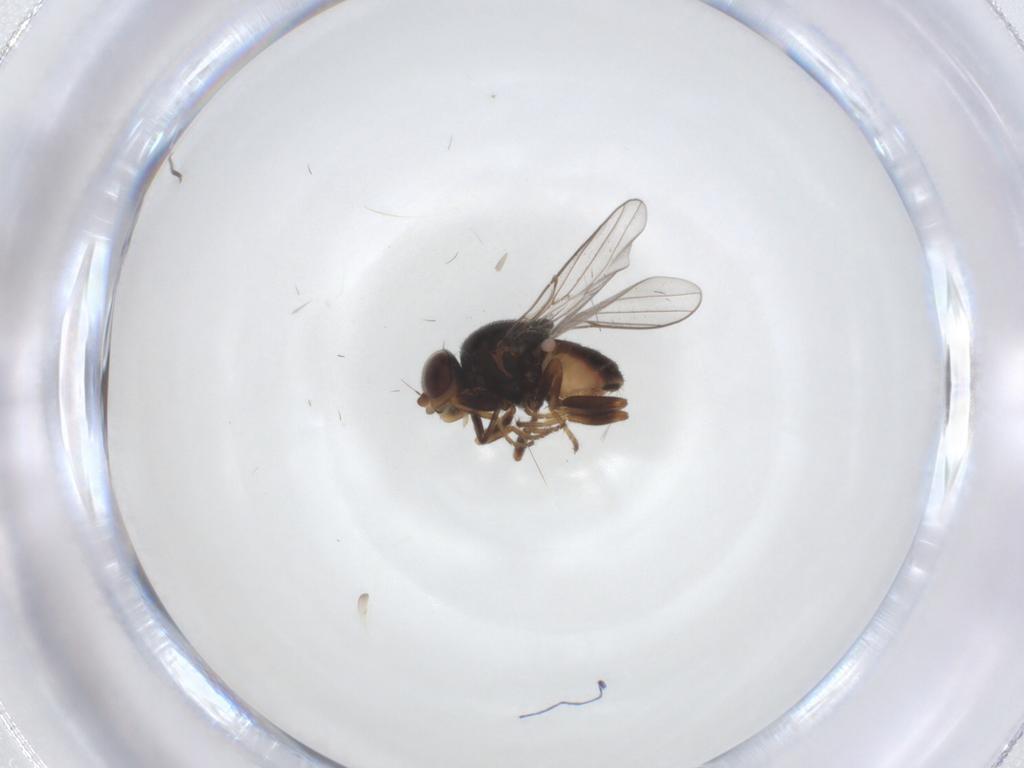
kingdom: Animalia
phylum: Arthropoda
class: Insecta
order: Diptera
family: Chloropidae
